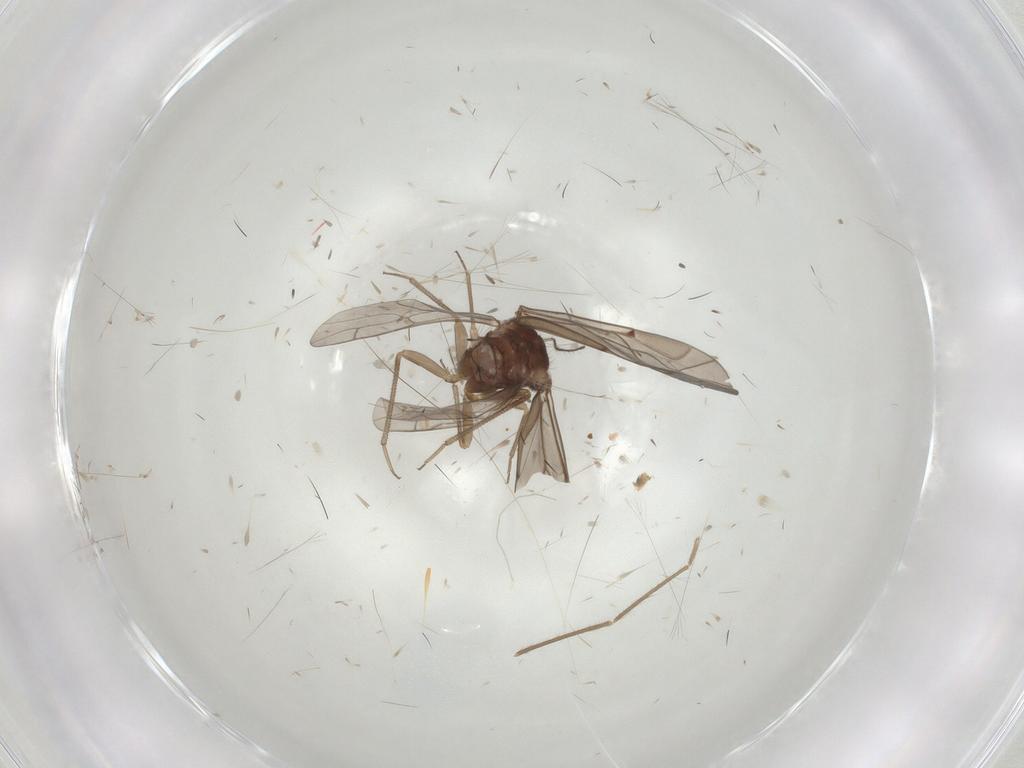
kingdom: Animalia
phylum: Arthropoda
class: Insecta
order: Psocodea
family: Lachesillidae
